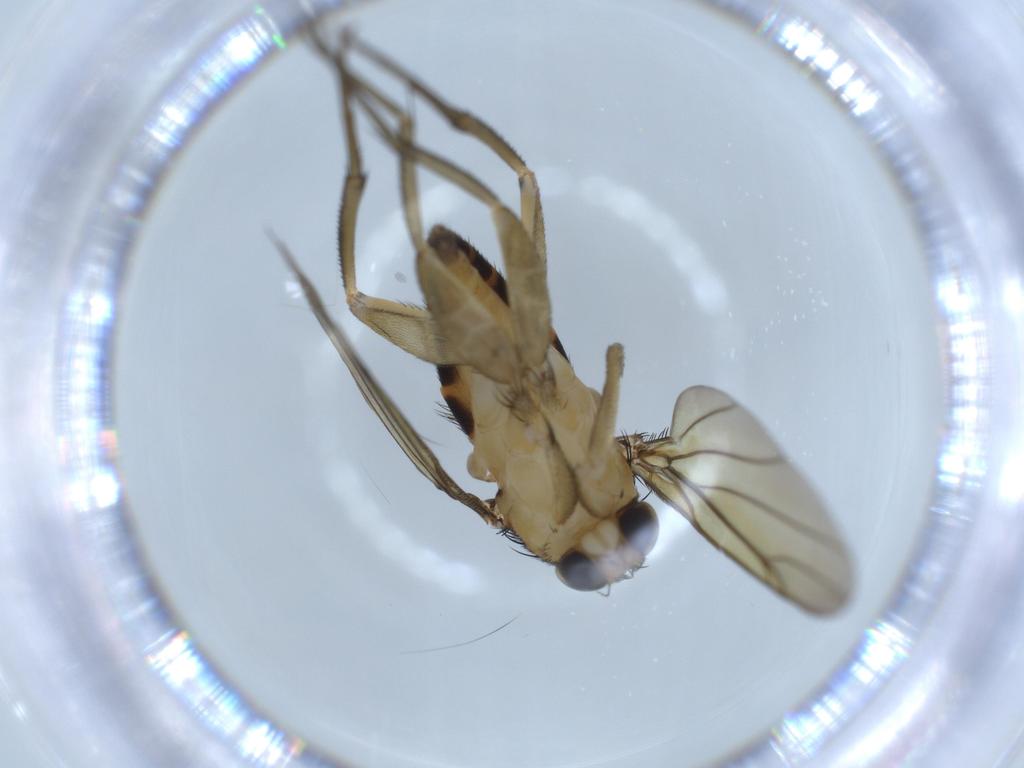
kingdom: Animalia
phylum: Arthropoda
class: Insecta
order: Diptera
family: Phoridae
